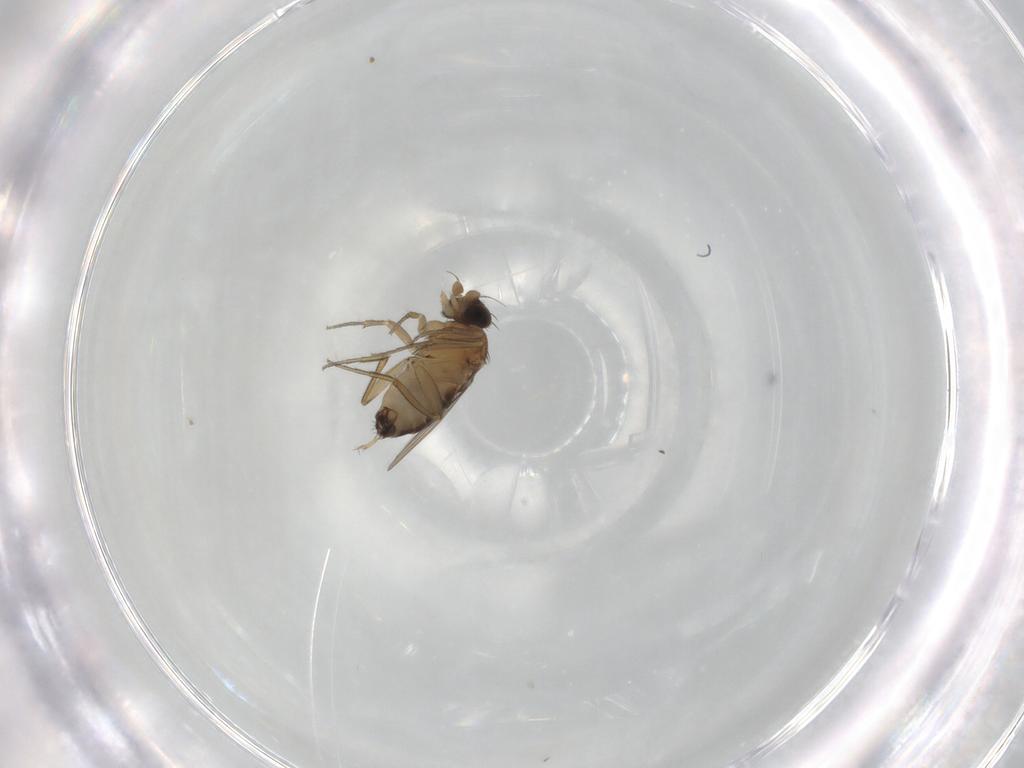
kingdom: Animalia
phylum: Arthropoda
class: Insecta
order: Diptera
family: Phoridae
